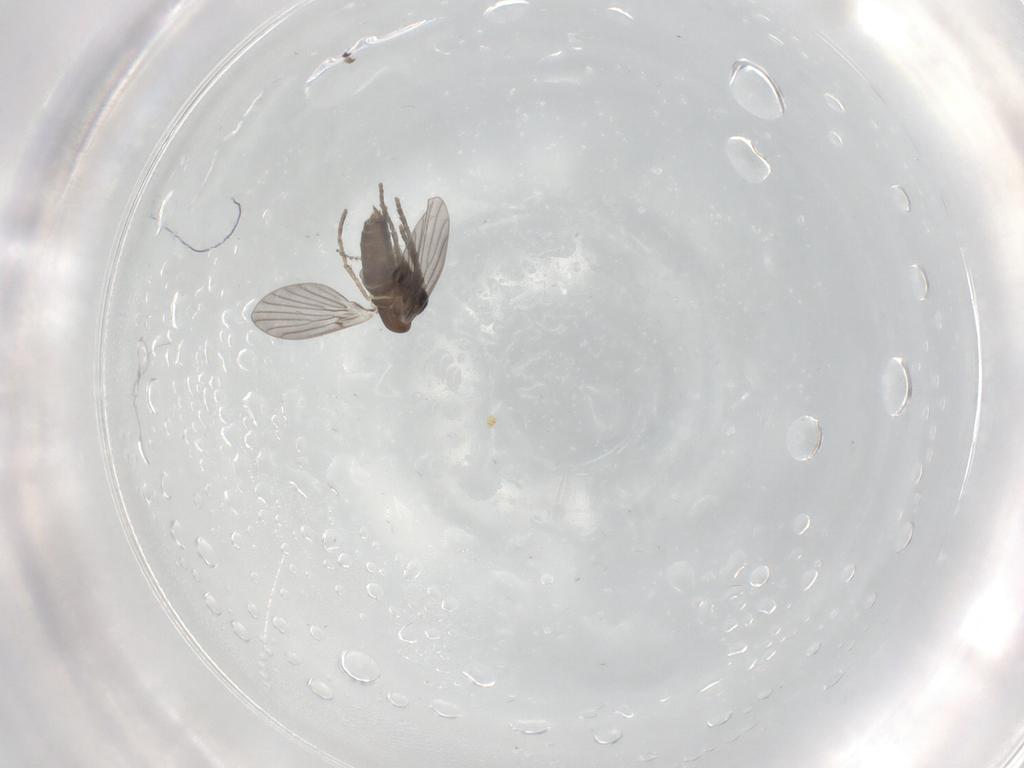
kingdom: Animalia
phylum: Arthropoda
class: Insecta
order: Diptera
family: Cecidomyiidae
